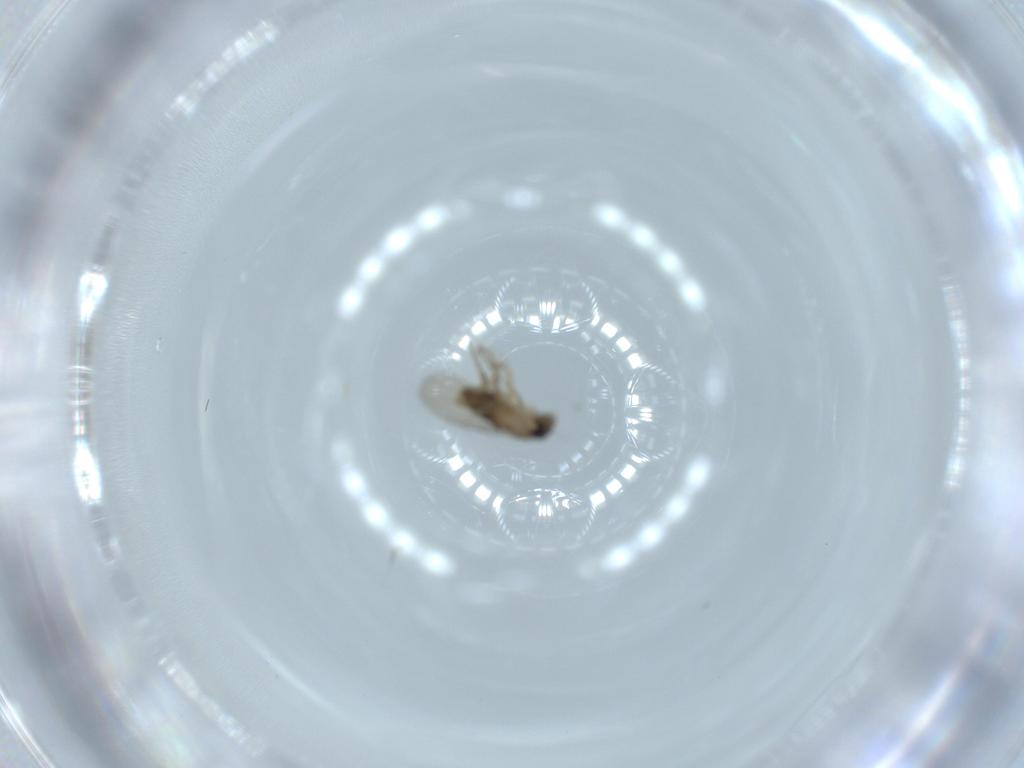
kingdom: Animalia
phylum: Arthropoda
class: Insecta
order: Diptera
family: Phoridae
